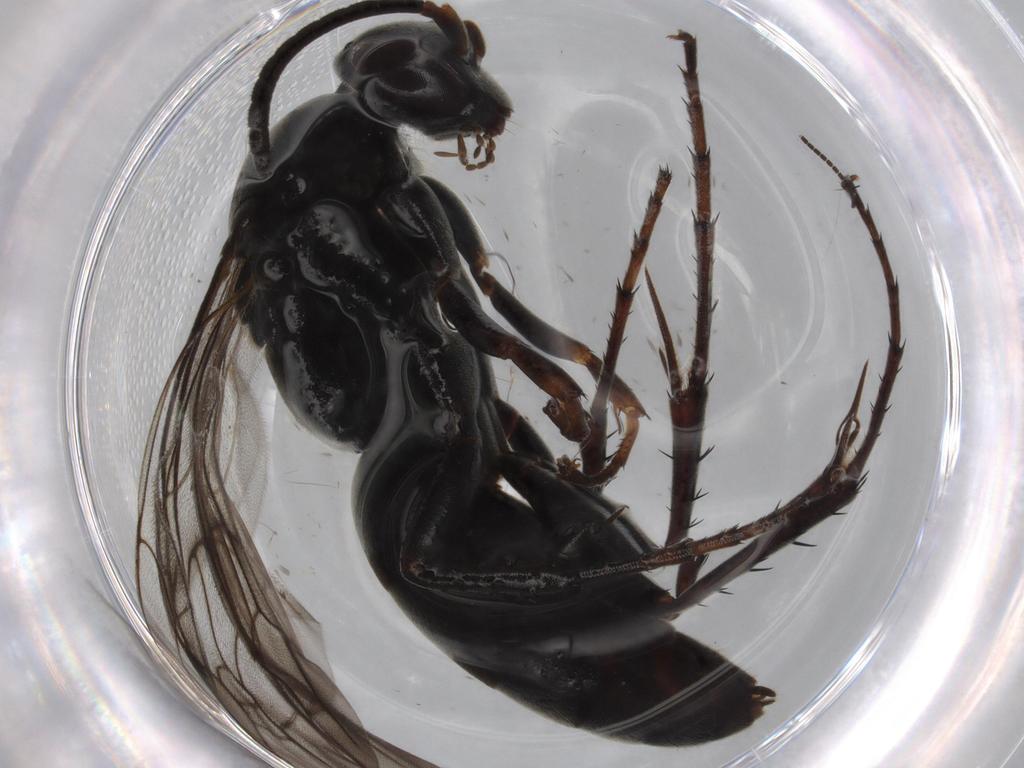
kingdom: Animalia
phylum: Arthropoda
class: Insecta
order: Hymenoptera
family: Pompilidae
